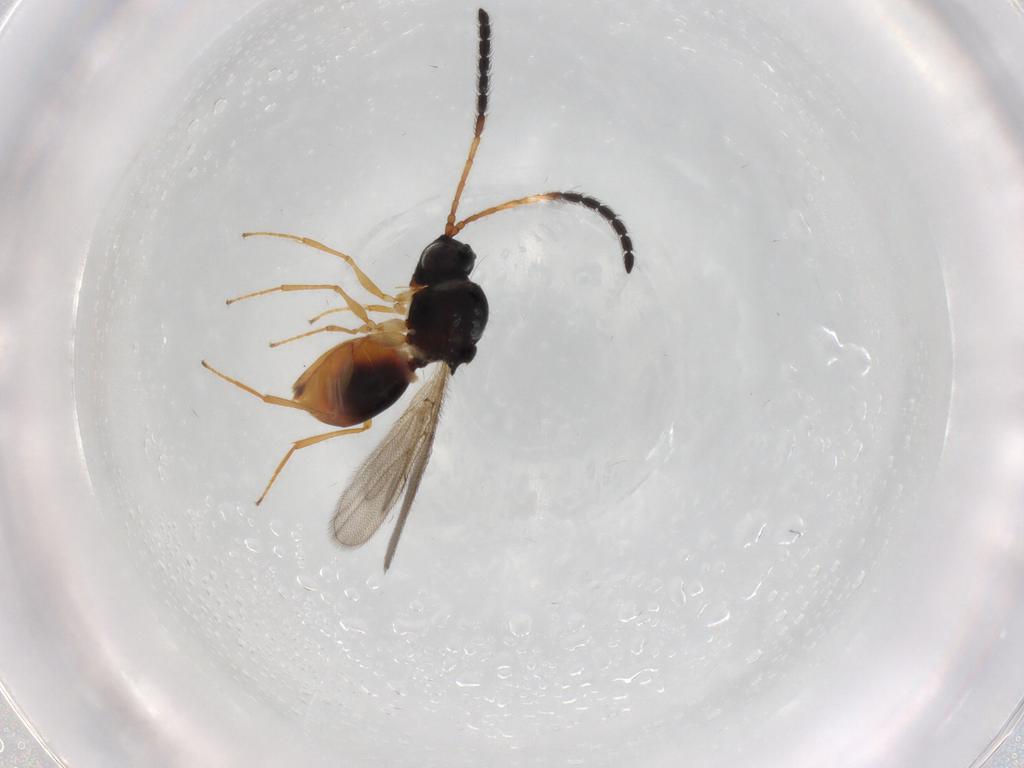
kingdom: Animalia
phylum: Arthropoda
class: Insecta
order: Hymenoptera
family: Figitidae
